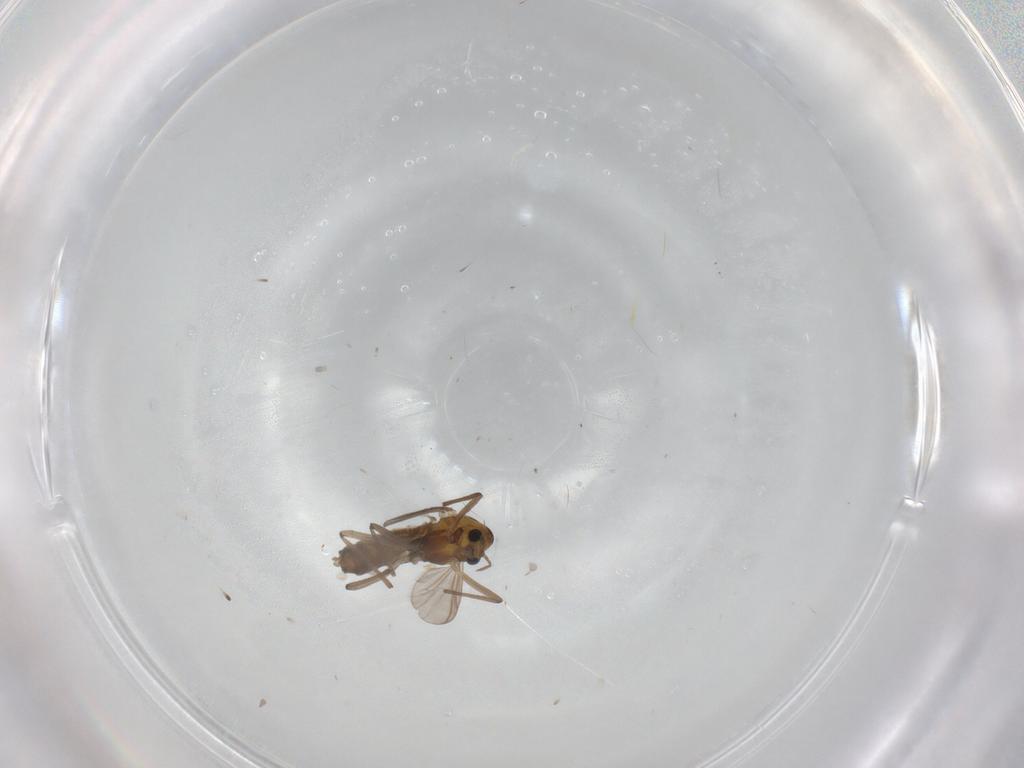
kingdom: Animalia
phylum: Arthropoda
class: Insecta
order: Diptera
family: Chironomidae
